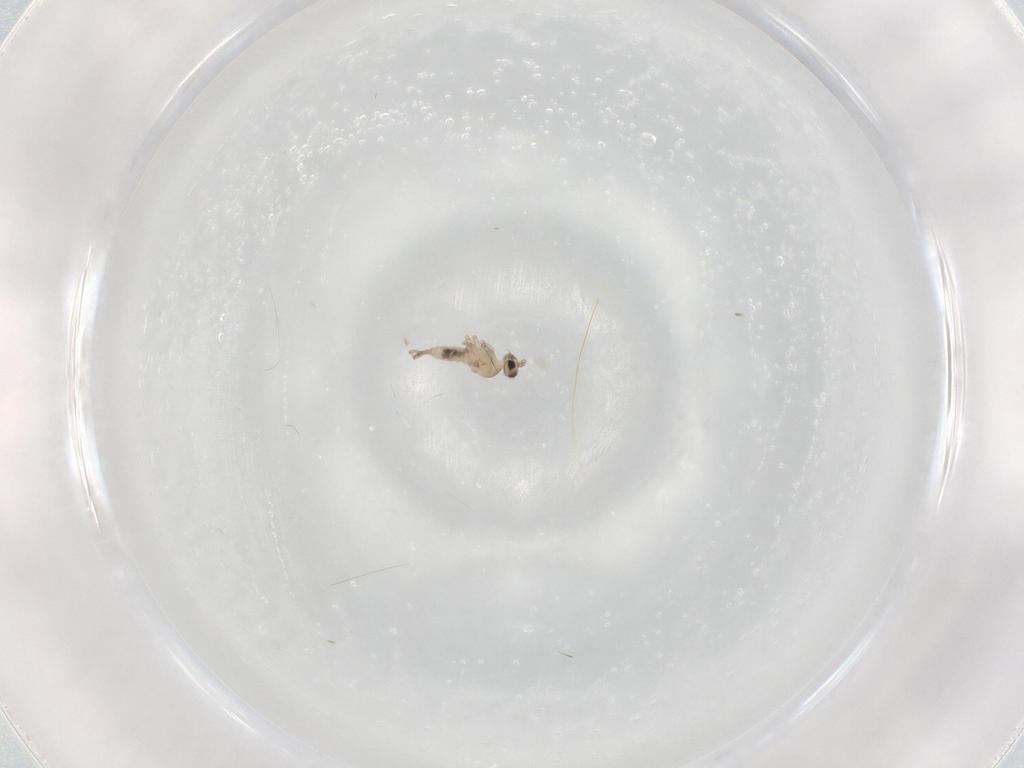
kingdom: Animalia
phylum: Arthropoda
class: Insecta
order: Diptera
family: Cecidomyiidae
